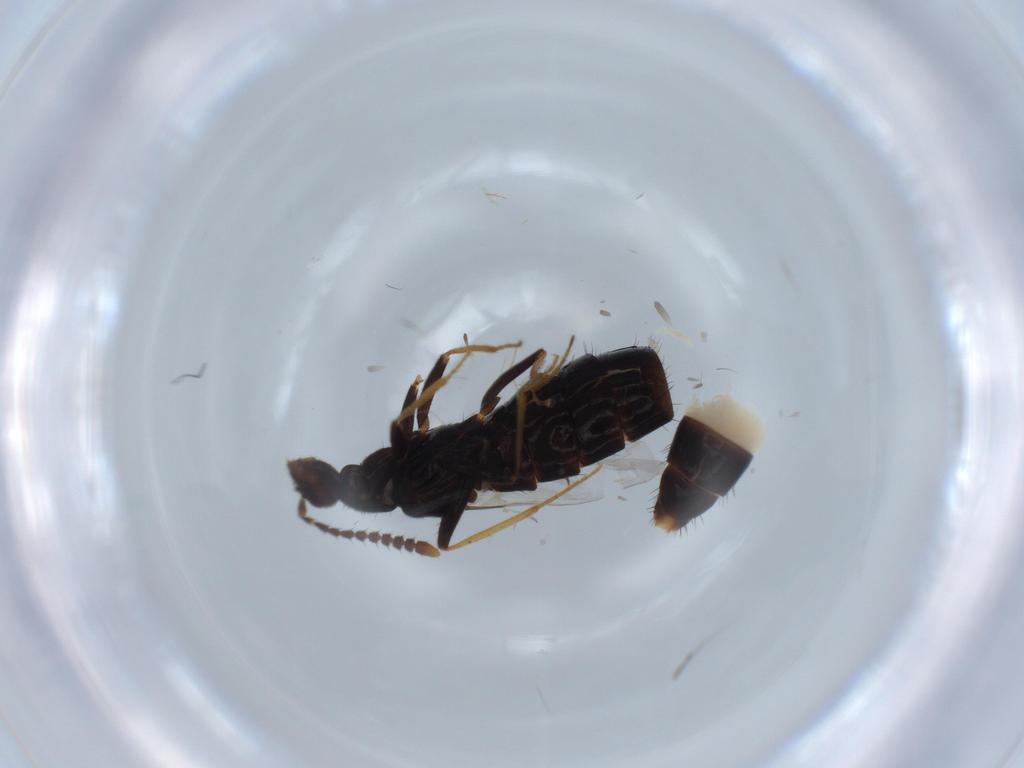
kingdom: Animalia
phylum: Arthropoda
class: Insecta
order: Coleoptera
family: Staphylinidae
